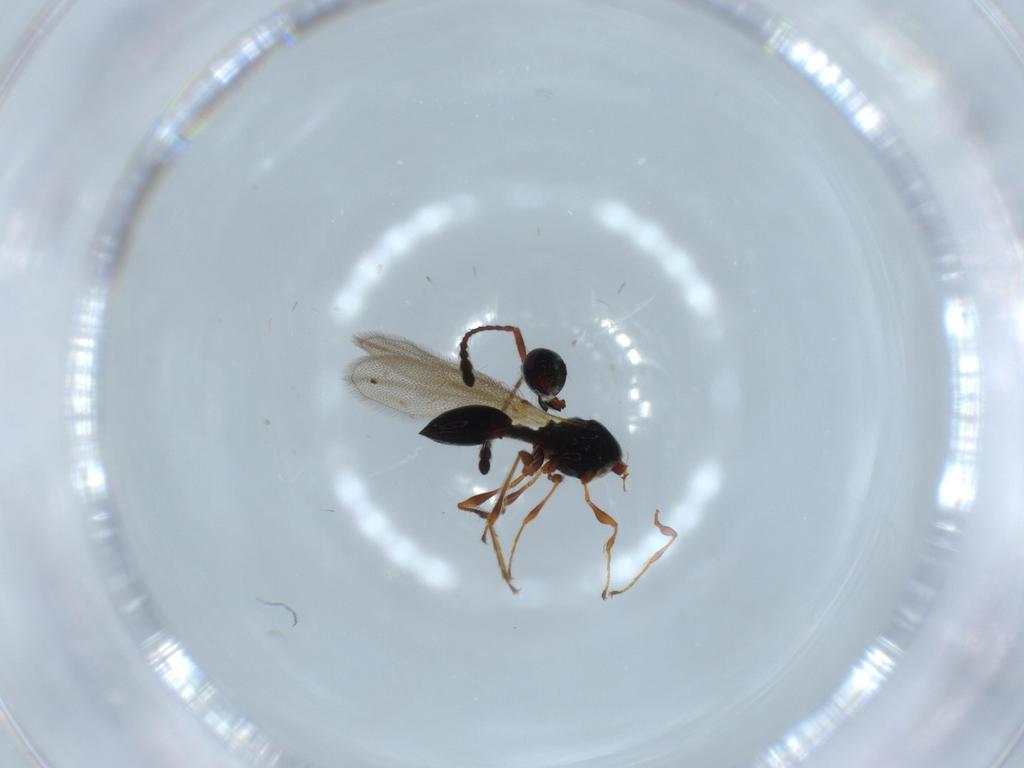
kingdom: Animalia
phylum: Arthropoda
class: Insecta
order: Hymenoptera
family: Diapriidae
